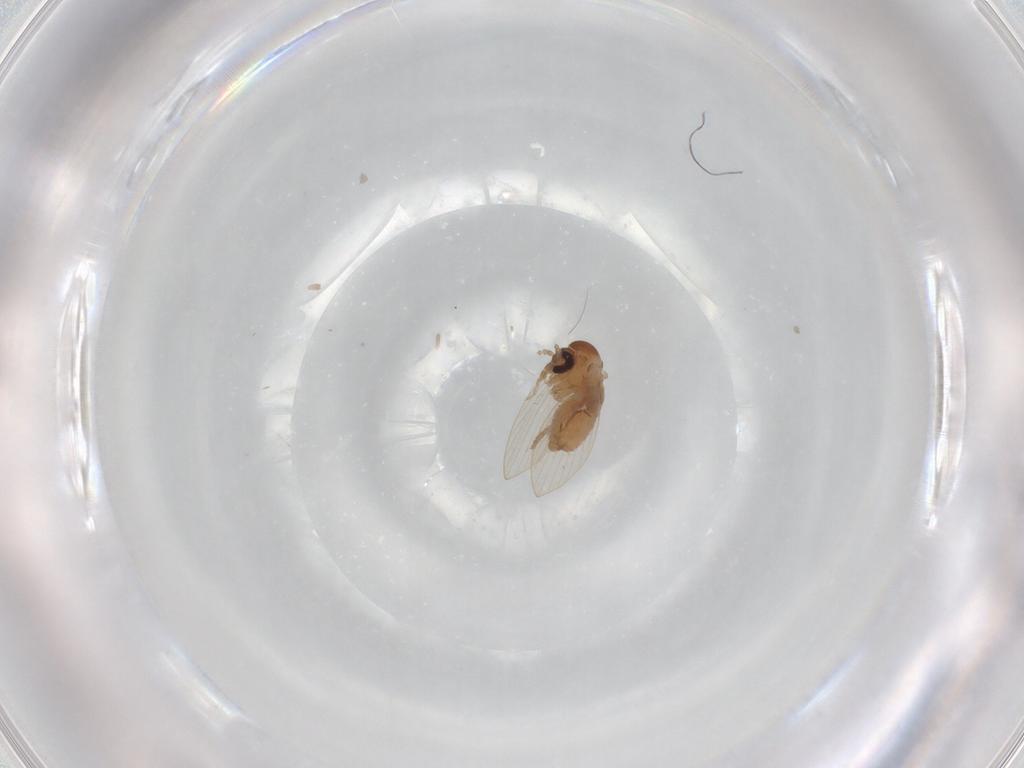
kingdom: Animalia
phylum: Arthropoda
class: Insecta
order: Diptera
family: Psychodidae
